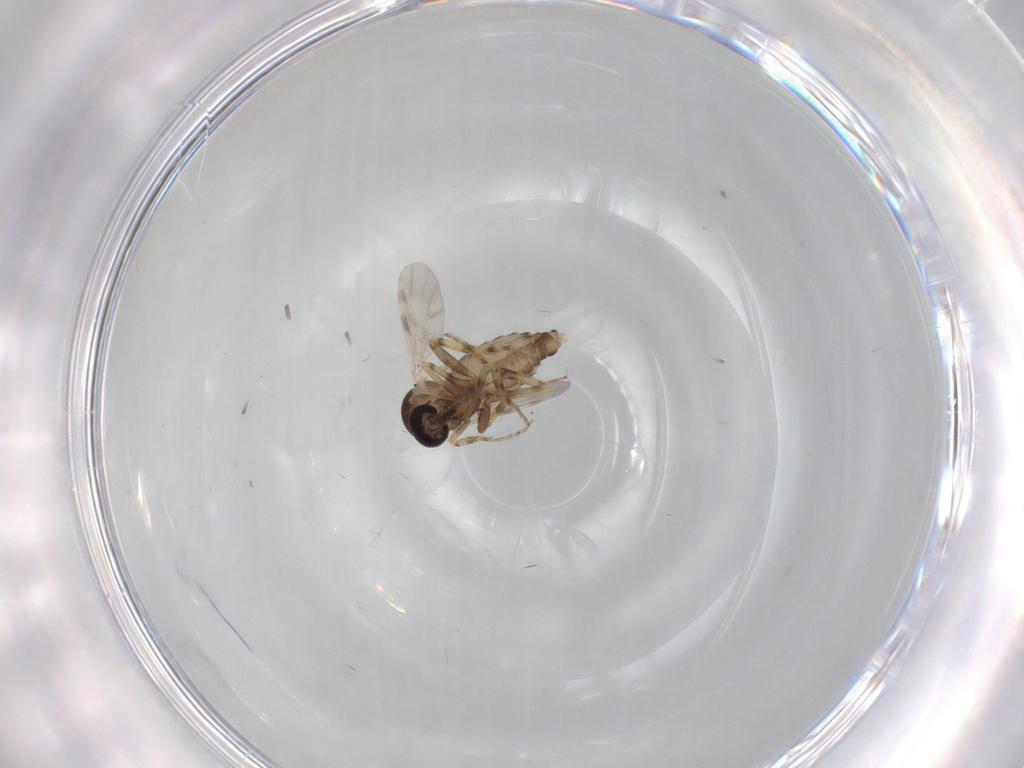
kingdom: Animalia
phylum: Arthropoda
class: Insecta
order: Diptera
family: Ceratopogonidae
